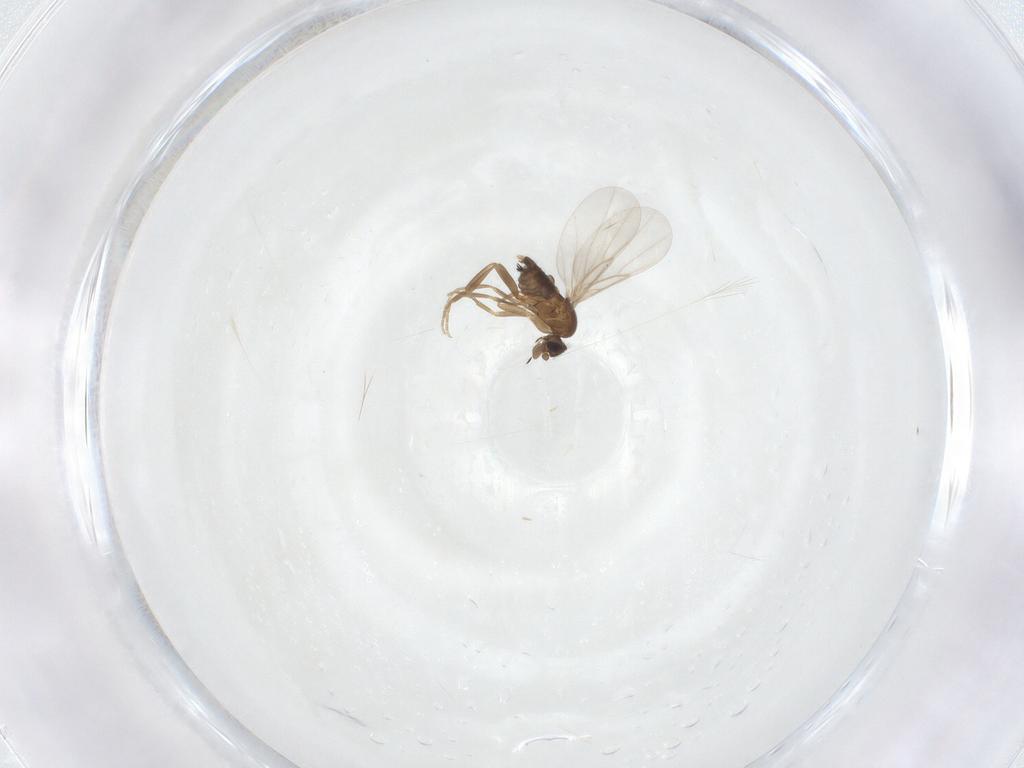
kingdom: Animalia
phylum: Arthropoda
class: Insecta
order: Diptera
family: Phoridae
